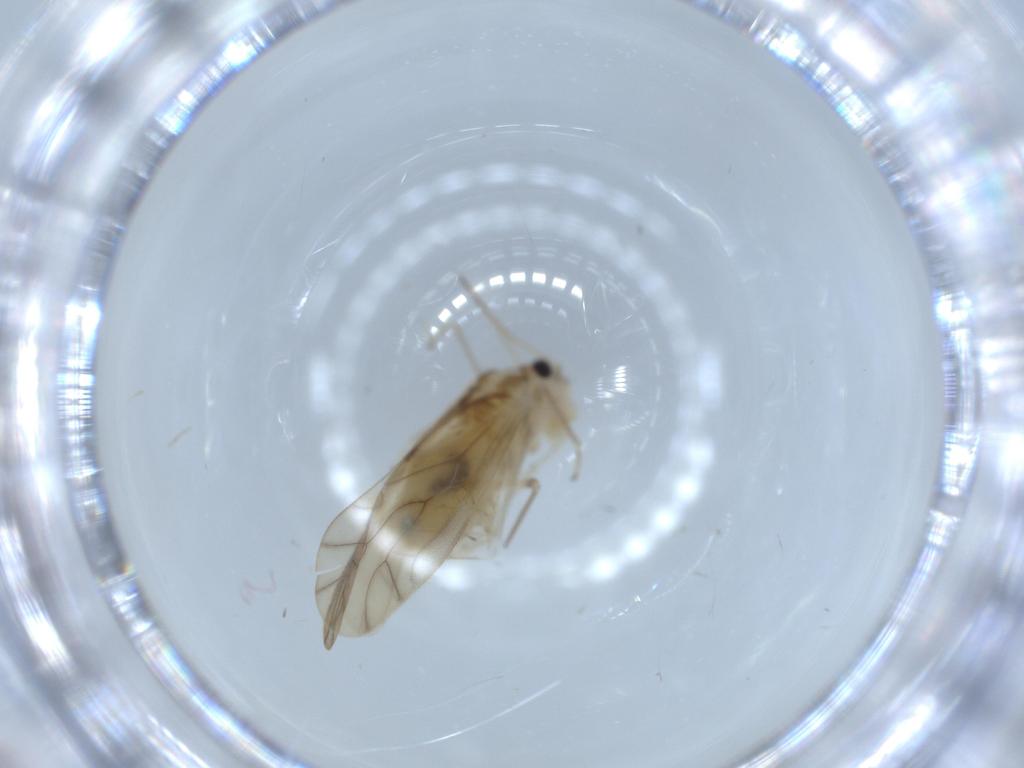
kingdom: Animalia
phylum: Arthropoda
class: Insecta
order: Psocodea
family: Caeciliusidae
